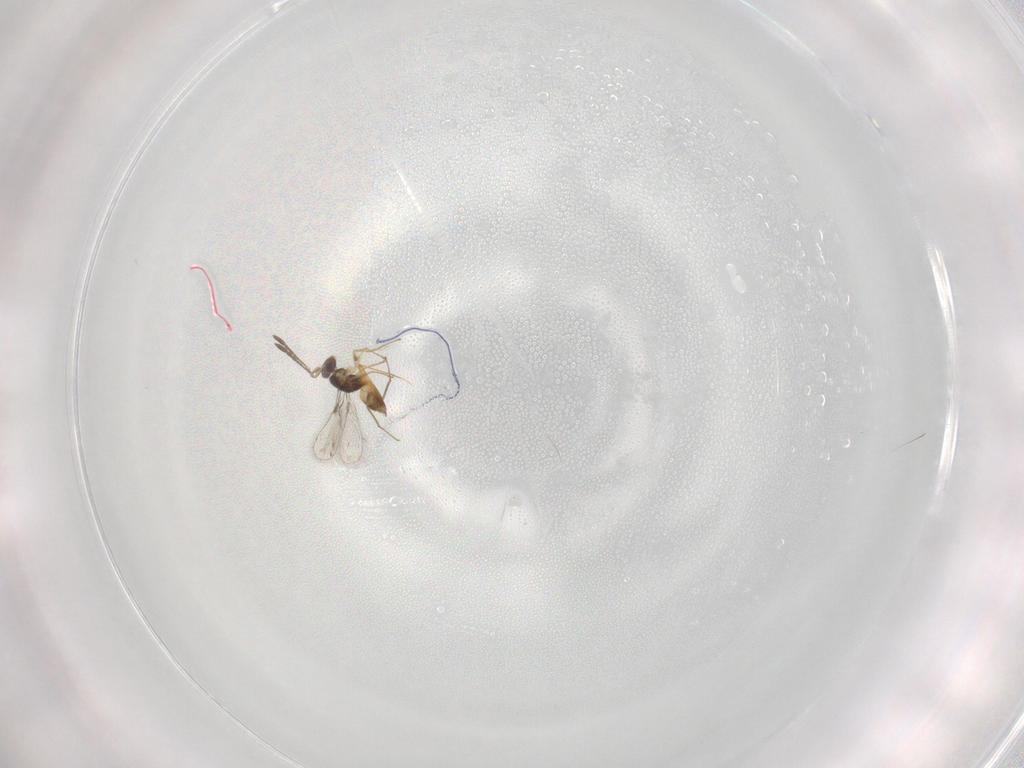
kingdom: Animalia
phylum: Arthropoda
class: Insecta
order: Hymenoptera
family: Mymaridae
